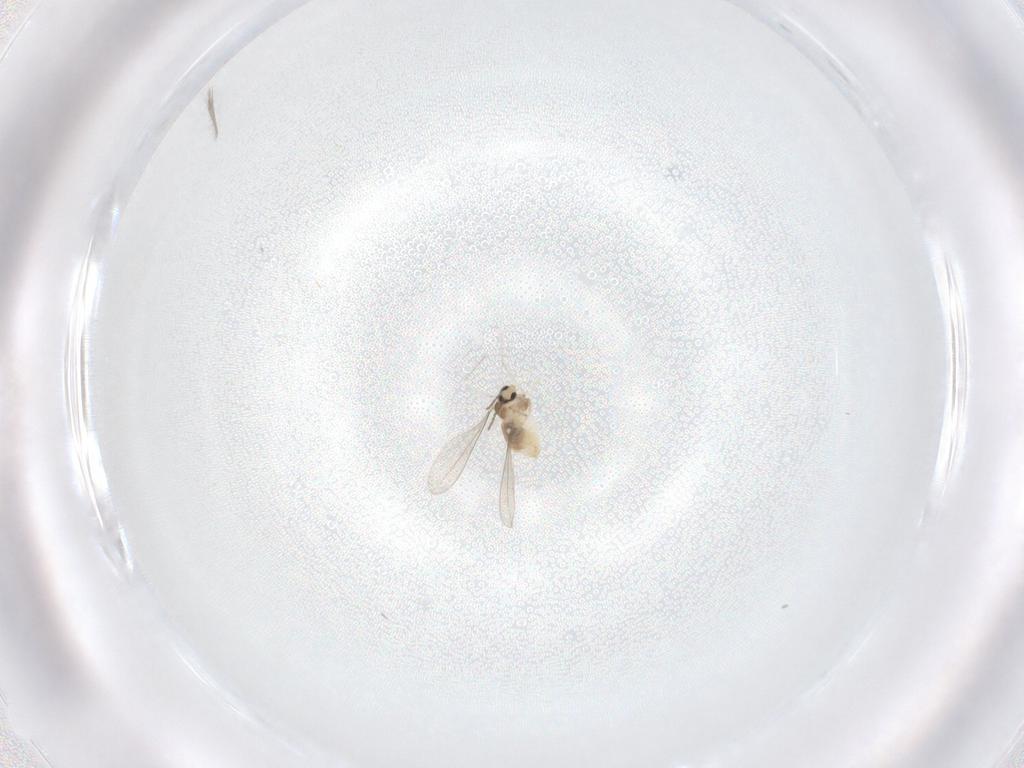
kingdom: Animalia
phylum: Arthropoda
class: Insecta
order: Diptera
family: Cecidomyiidae
